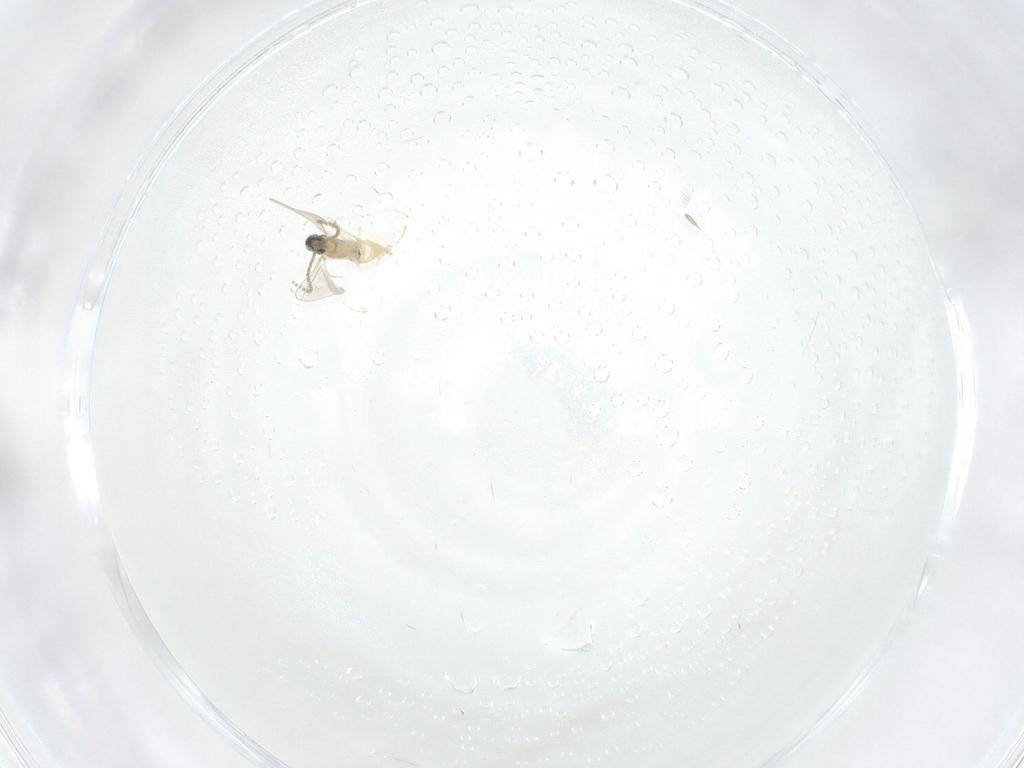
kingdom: Animalia
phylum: Arthropoda
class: Insecta
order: Diptera
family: Cecidomyiidae
